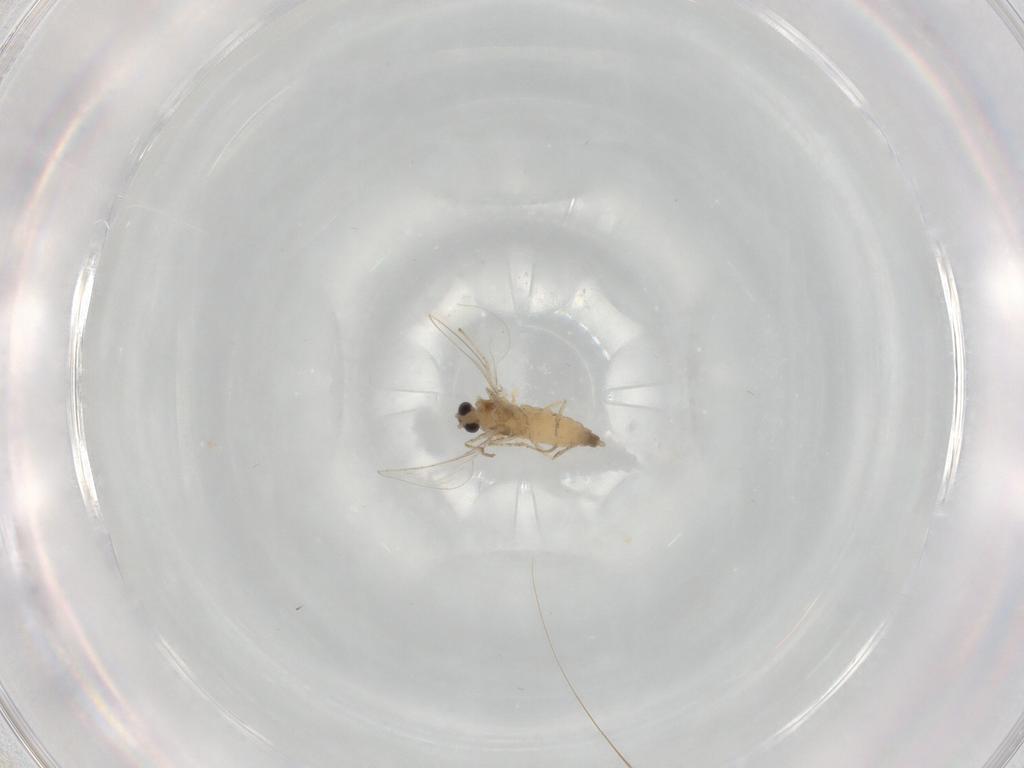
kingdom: Animalia
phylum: Arthropoda
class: Insecta
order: Diptera
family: Cecidomyiidae
